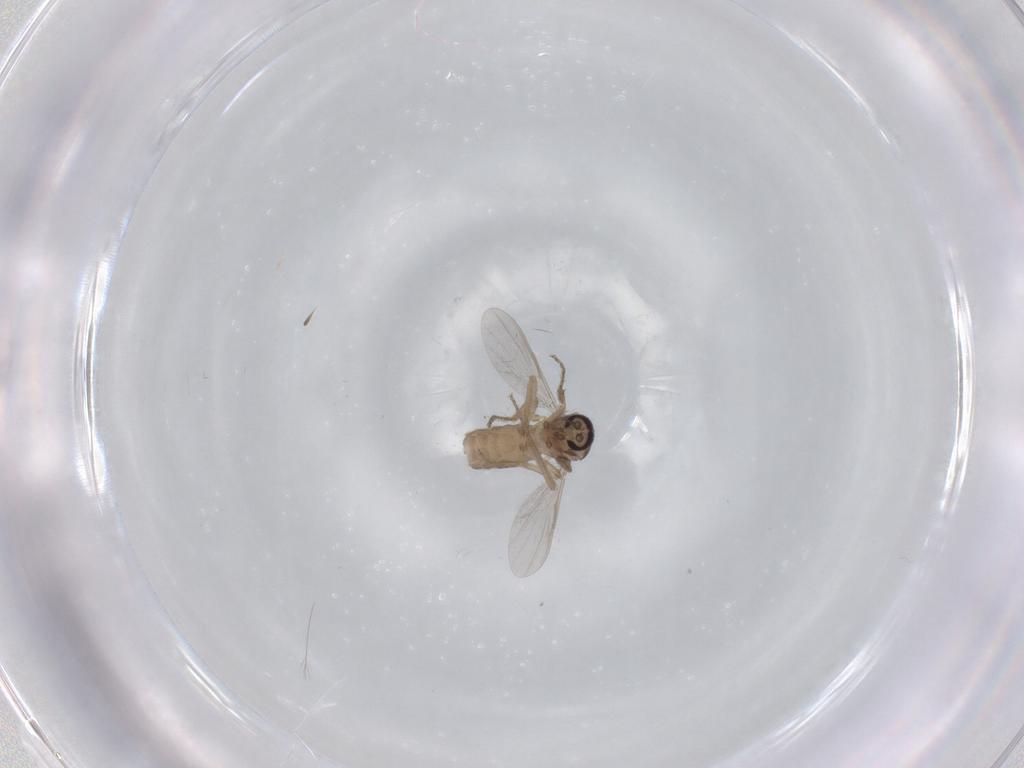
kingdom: Animalia
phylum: Arthropoda
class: Insecta
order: Diptera
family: Ceratopogonidae
